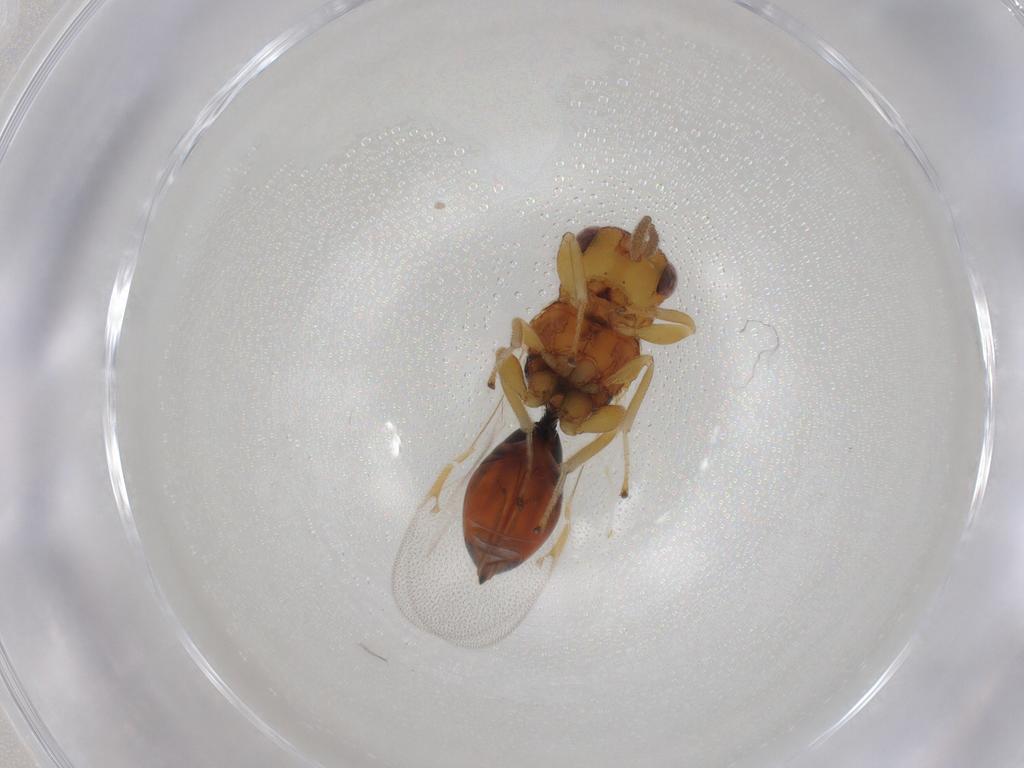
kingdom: Animalia
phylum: Arthropoda
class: Insecta
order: Hymenoptera
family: Eurytomidae
